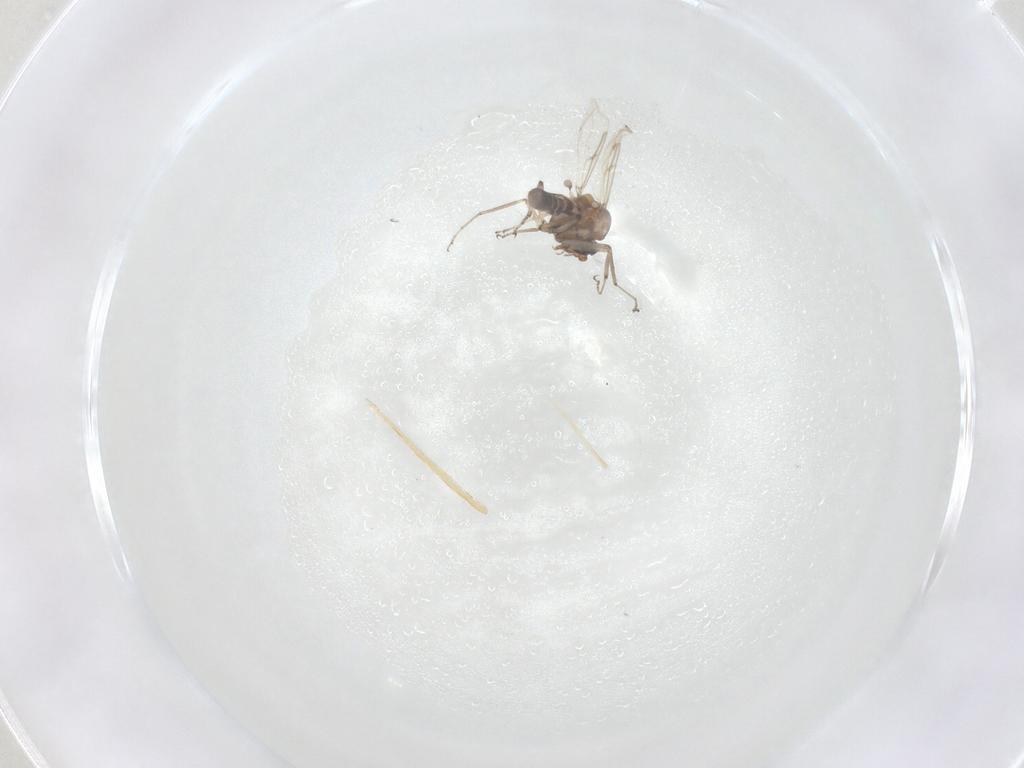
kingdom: Animalia
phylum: Arthropoda
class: Insecta
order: Diptera
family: Ceratopogonidae
